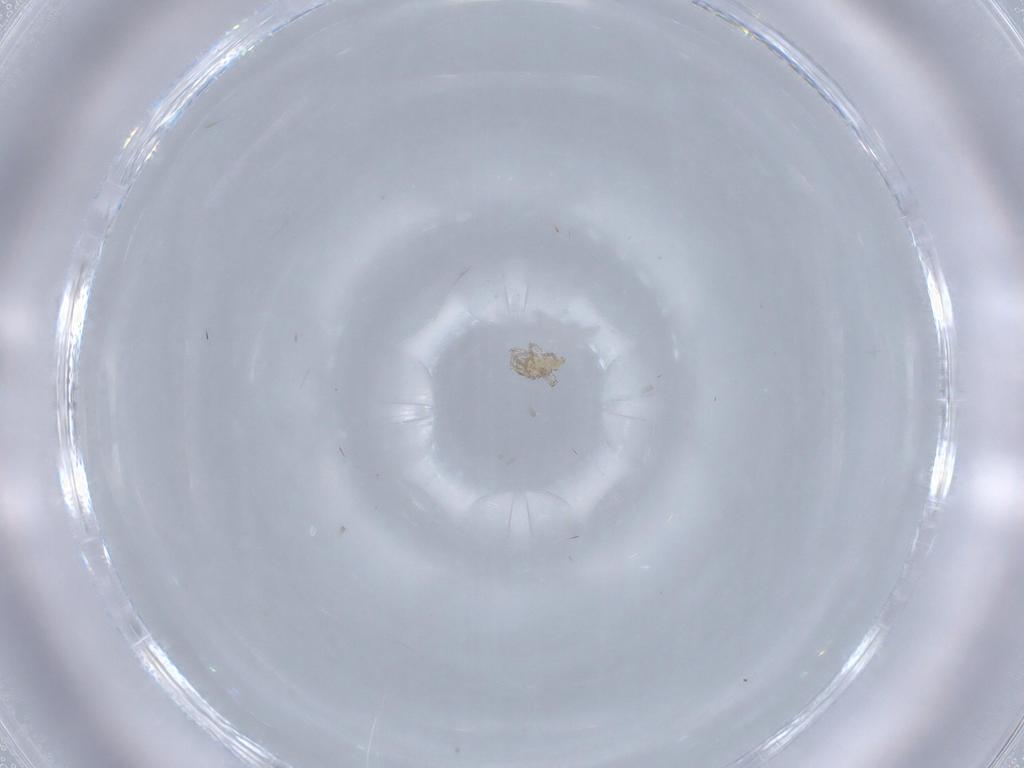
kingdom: Animalia
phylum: Arthropoda
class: Arachnida
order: Trombidiformes
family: Erythraeidae
